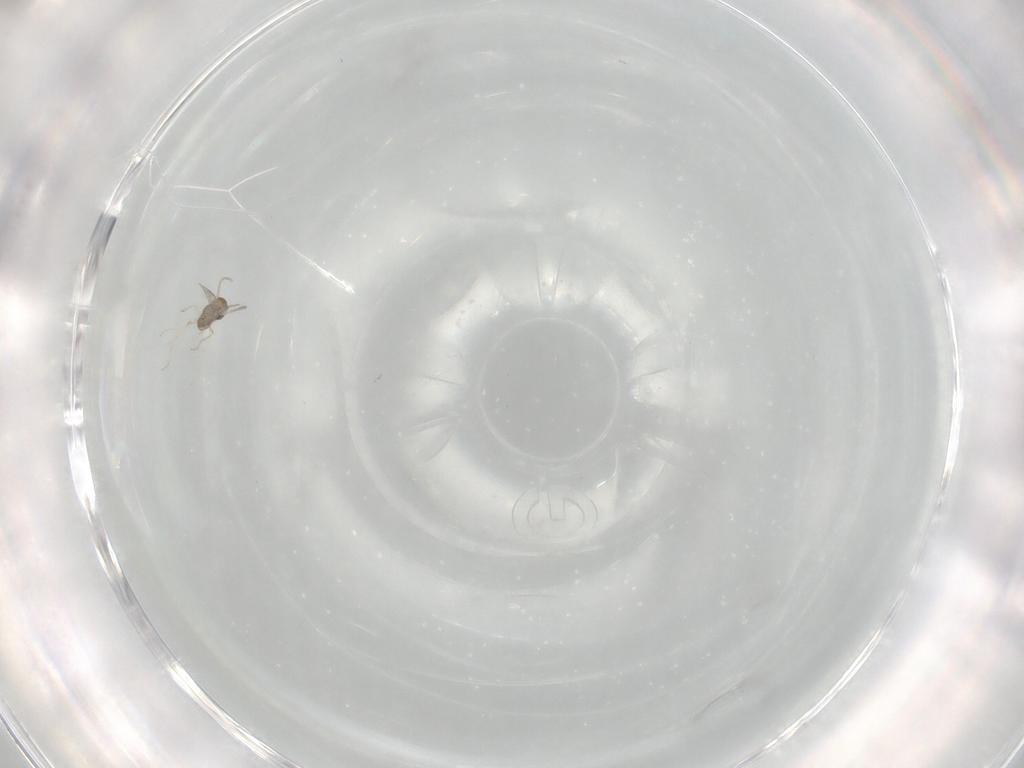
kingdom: Animalia
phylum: Arthropoda
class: Insecta
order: Diptera
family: Cecidomyiidae
